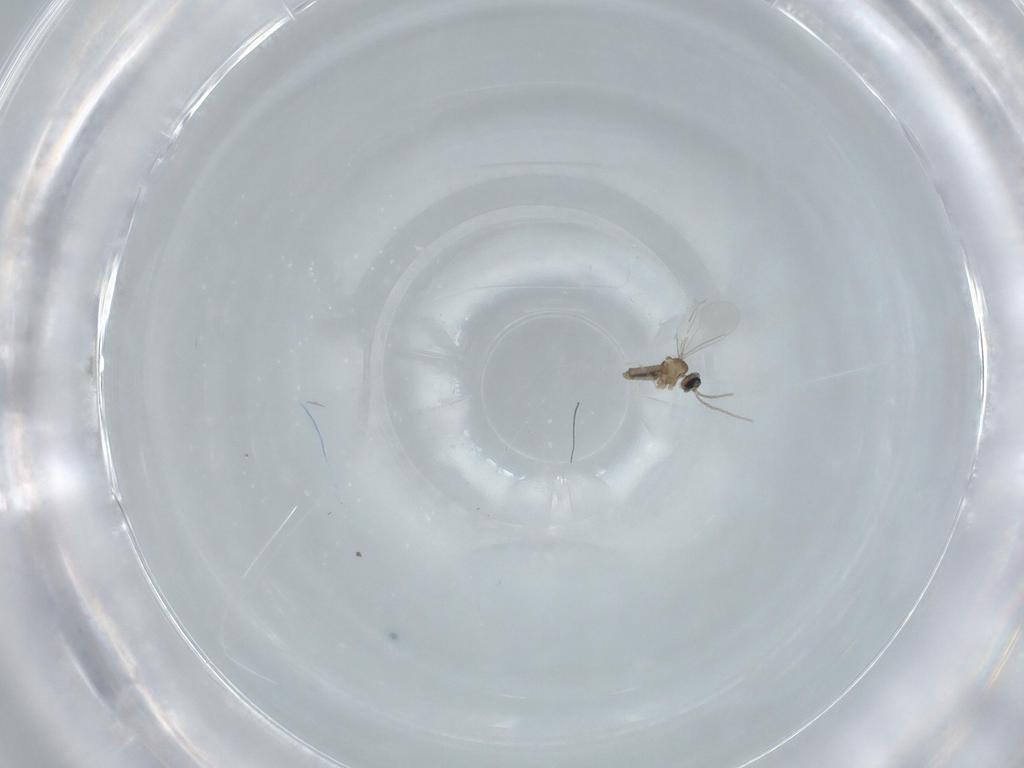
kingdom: Animalia
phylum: Arthropoda
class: Insecta
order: Diptera
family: Cecidomyiidae
